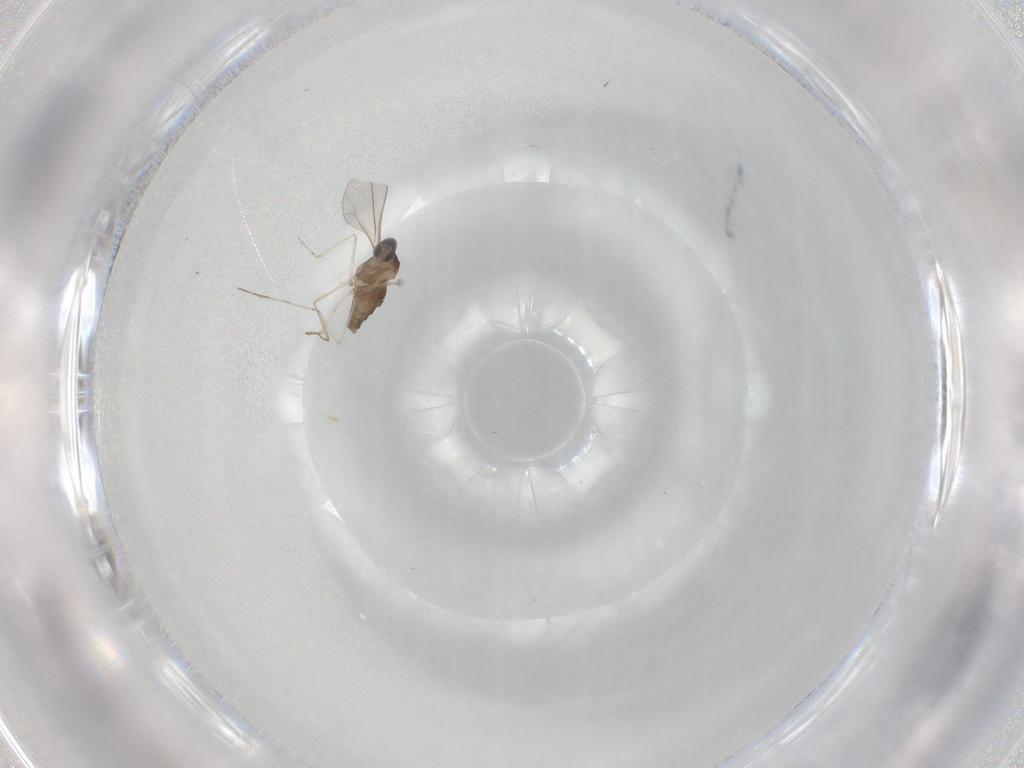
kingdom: Animalia
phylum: Arthropoda
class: Insecta
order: Diptera
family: Cecidomyiidae
